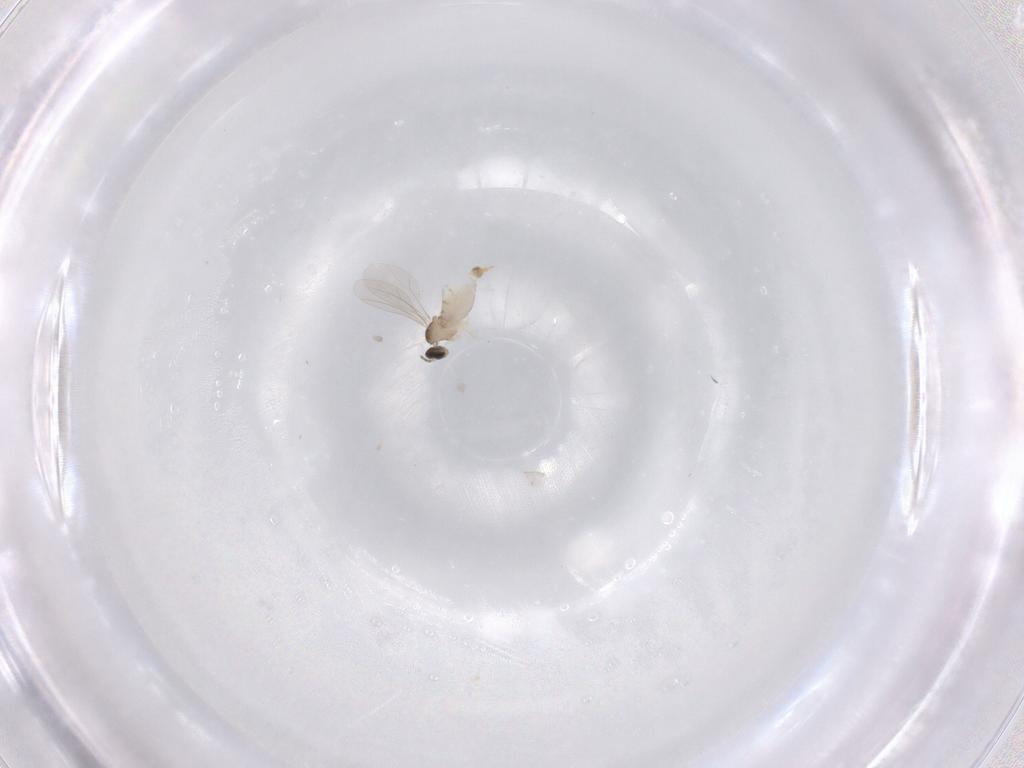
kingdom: Animalia
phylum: Arthropoda
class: Insecta
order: Diptera
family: Cecidomyiidae
